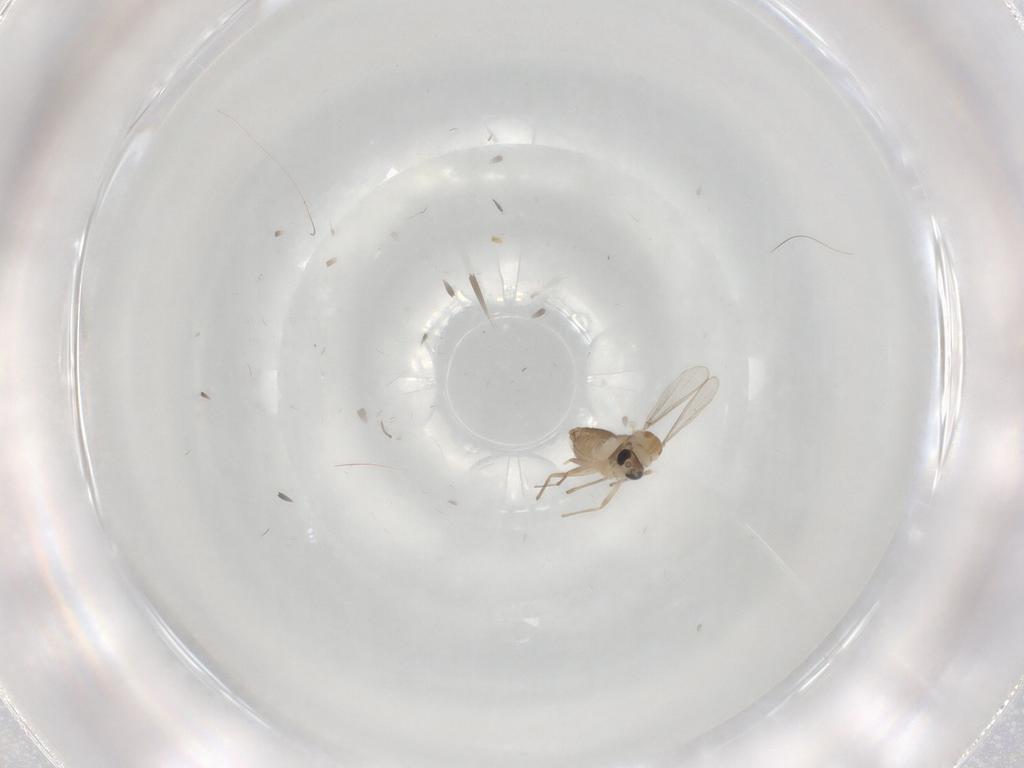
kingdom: Animalia
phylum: Arthropoda
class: Insecta
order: Diptera
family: Chironomidae
